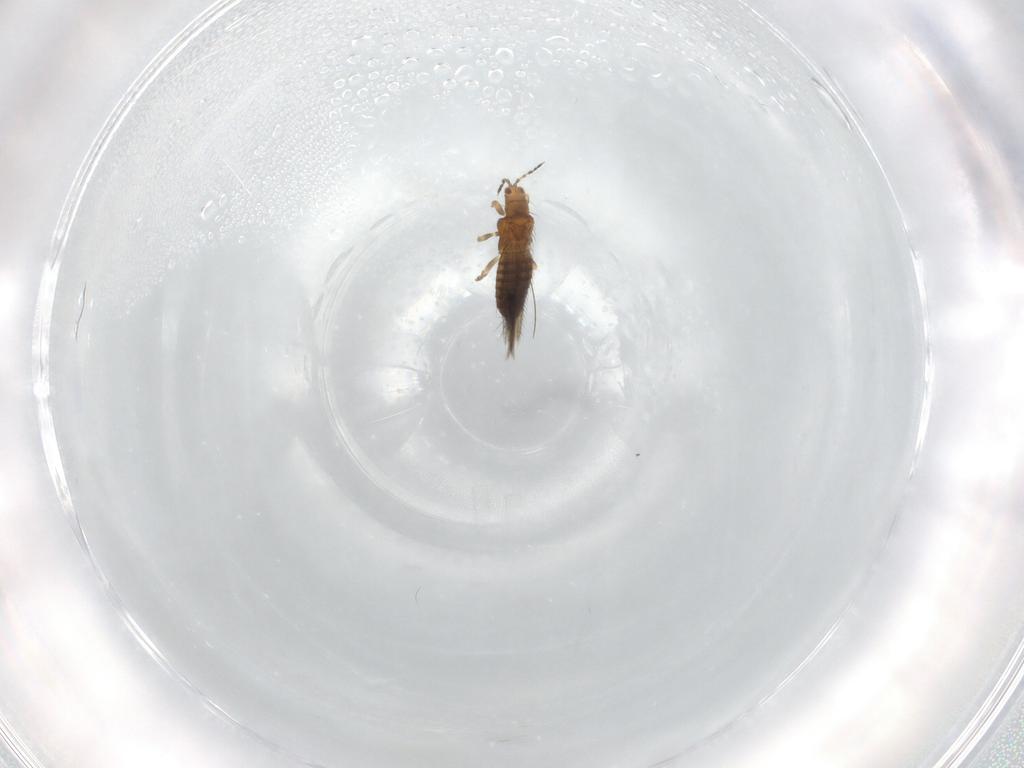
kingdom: Animalia
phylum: Arthropoda
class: Insecta
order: Thysanoptera
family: Thripidae
